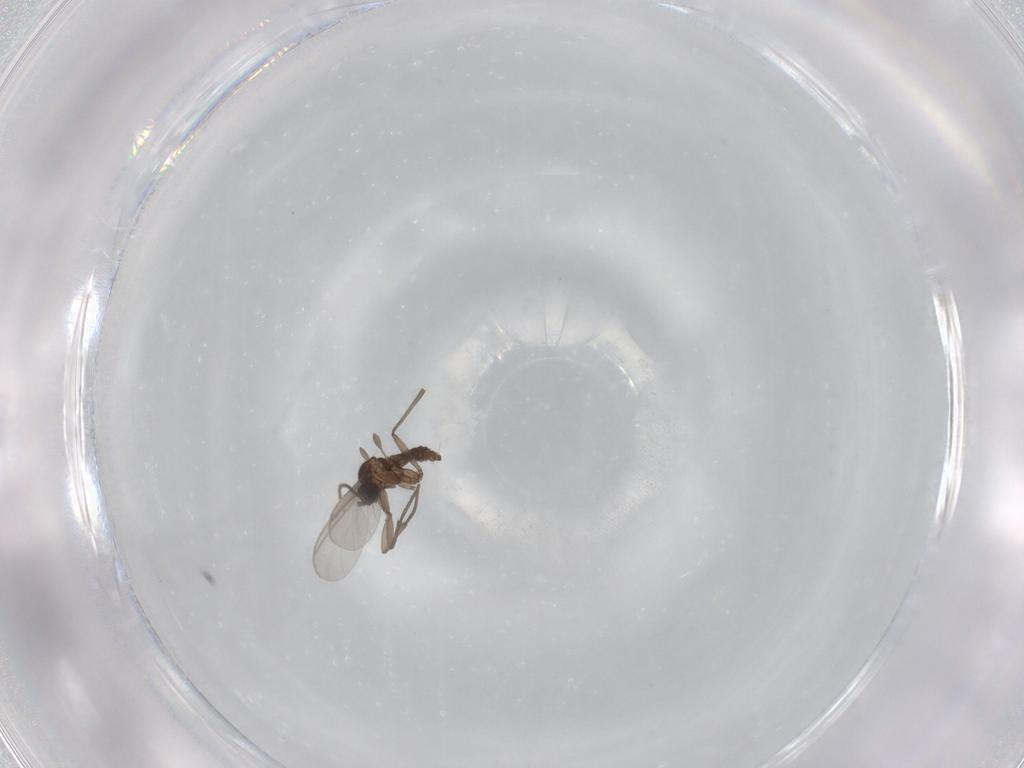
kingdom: Animalia
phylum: Arthropoda
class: Insecta
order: Diptera
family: Sciaridae
